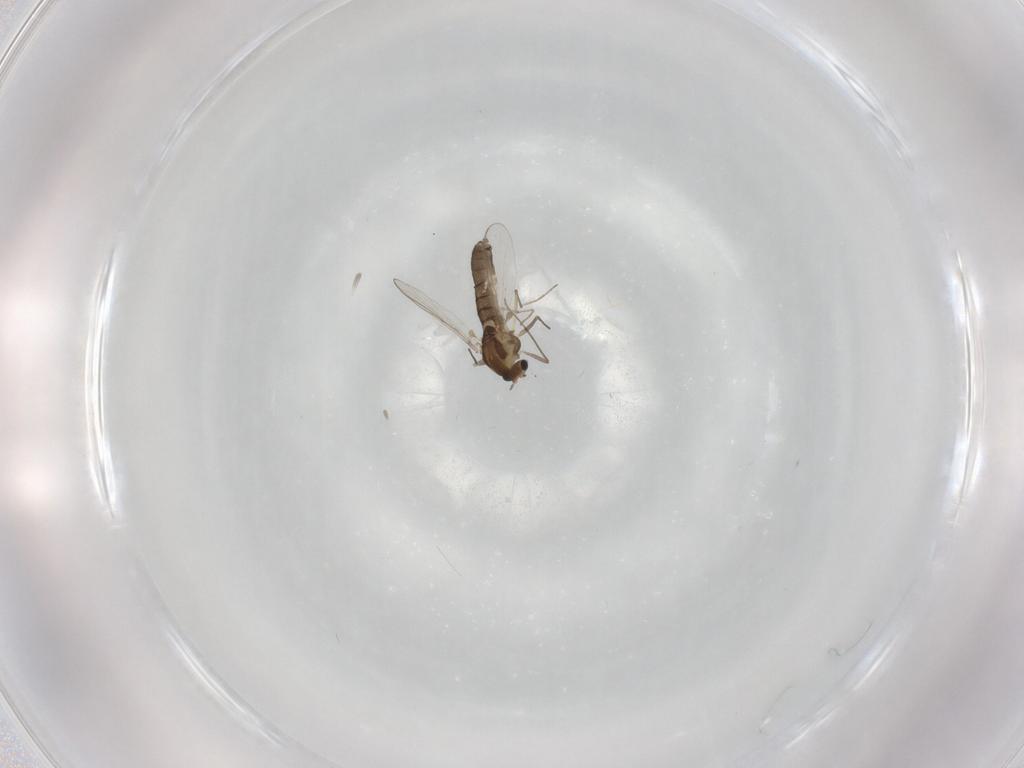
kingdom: Animalia
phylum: Arthropoda
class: Insecta
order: Diptera
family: Chironomidae
